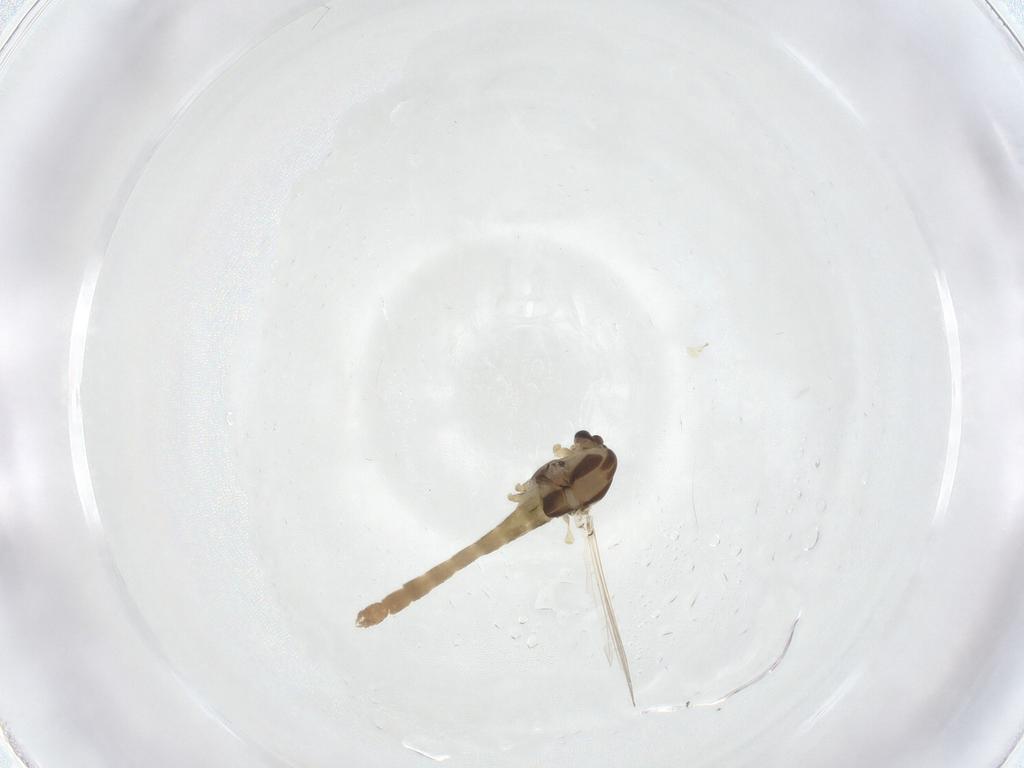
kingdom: Animalia
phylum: Arthropoda
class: Insecta
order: Diptera
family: Chironomidae
